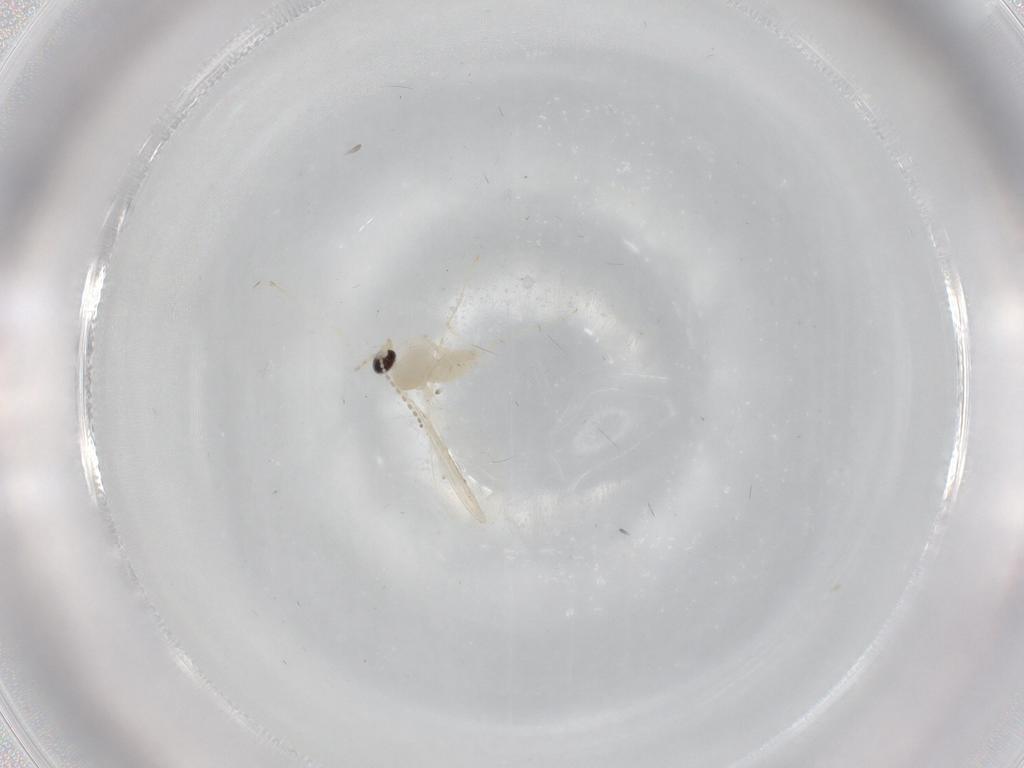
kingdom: Animalia
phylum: Arthropoda
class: Insecta
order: Diptera
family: Cecidomyiidae
